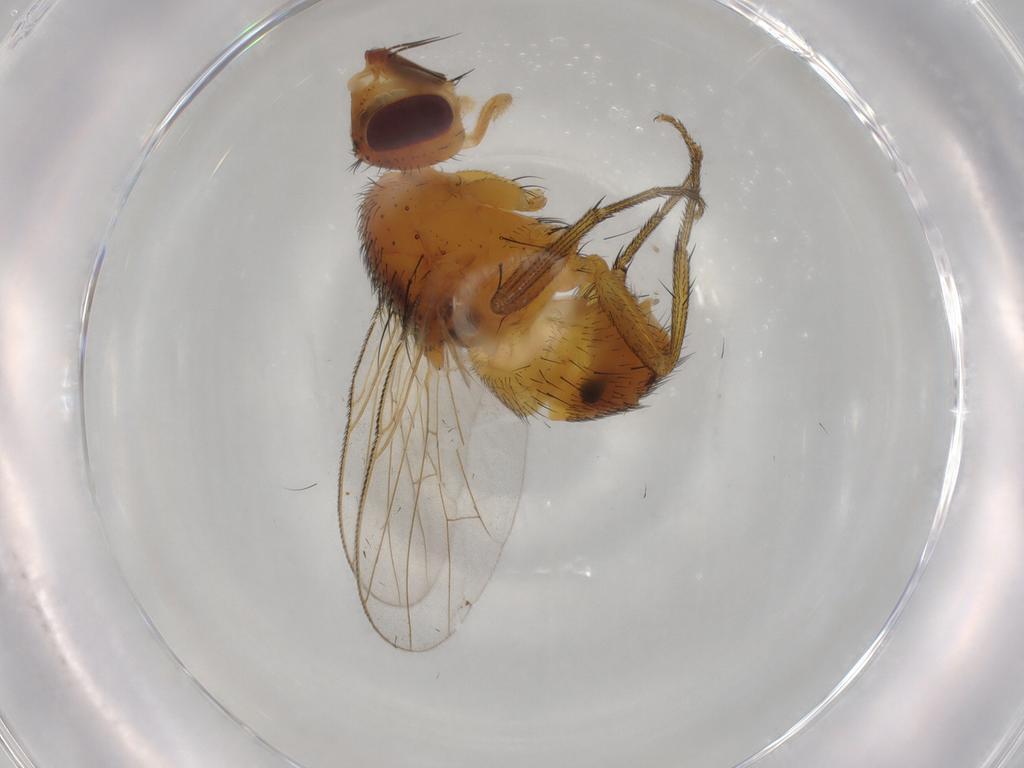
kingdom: Animalia
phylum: Arthropoda
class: Insecta
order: Diptera
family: Muscidae
